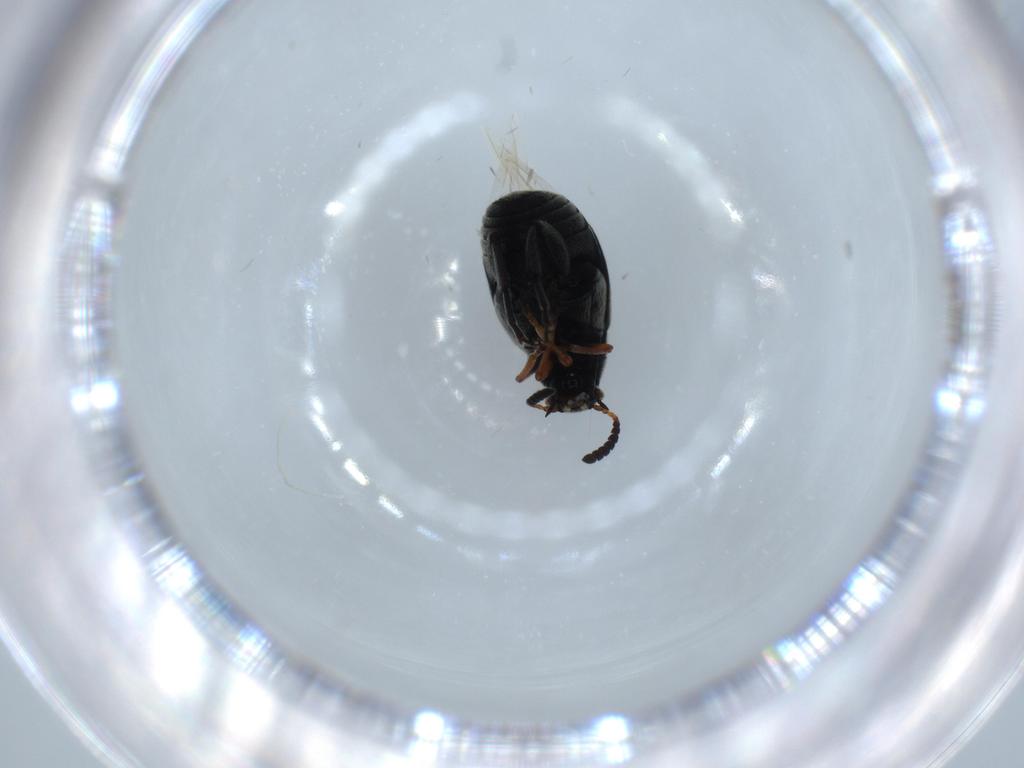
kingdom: Animalia
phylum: Arthropoda
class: Insecta
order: Coleoptera
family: Chrysomelidae
